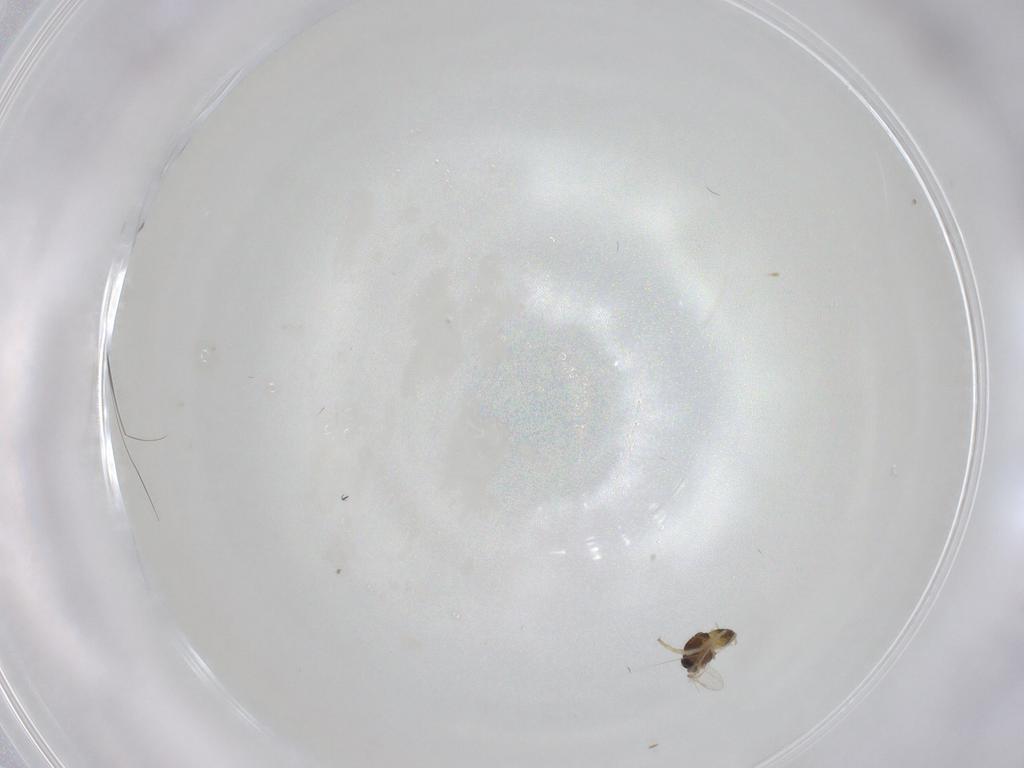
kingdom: Animalia
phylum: Arthropoda
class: Insecta
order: Diptera
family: Chironomidae
